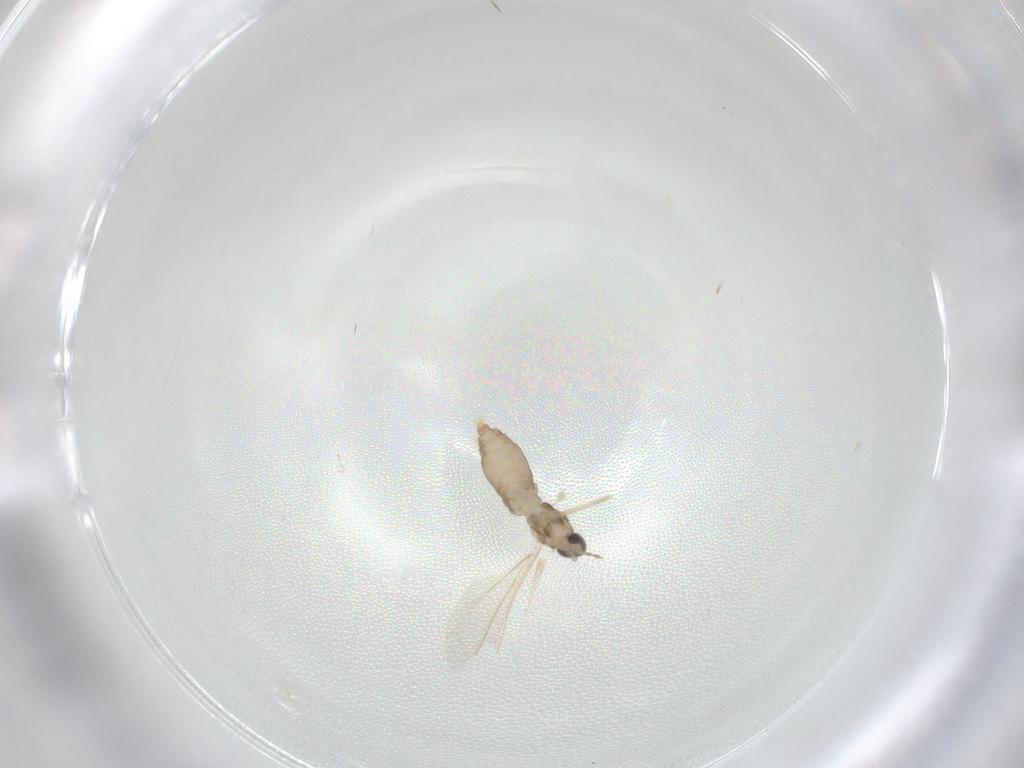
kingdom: Animalia
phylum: Arthropoda
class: Insecta
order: Diptera
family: Cecidomyiidae
